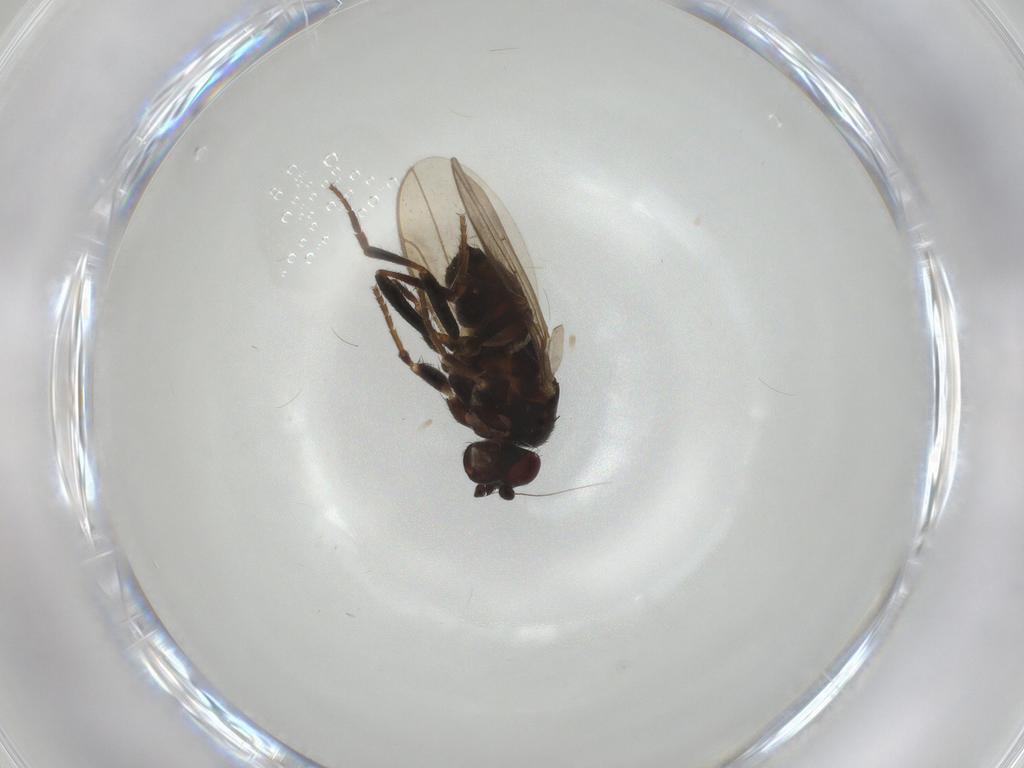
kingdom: Animalia
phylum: Arthropoda
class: Insecta
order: Diptera
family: Sphaeroceridae
